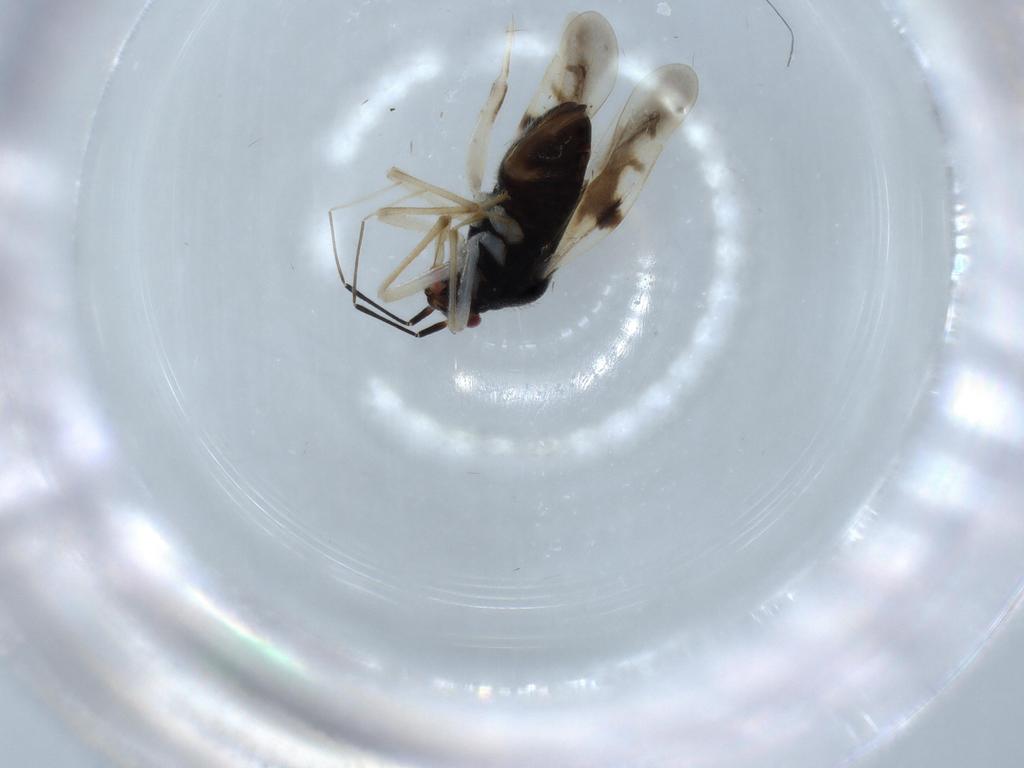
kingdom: Animalia
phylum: Arthropoda
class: Insecta
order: Hemiptera
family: Miridae
